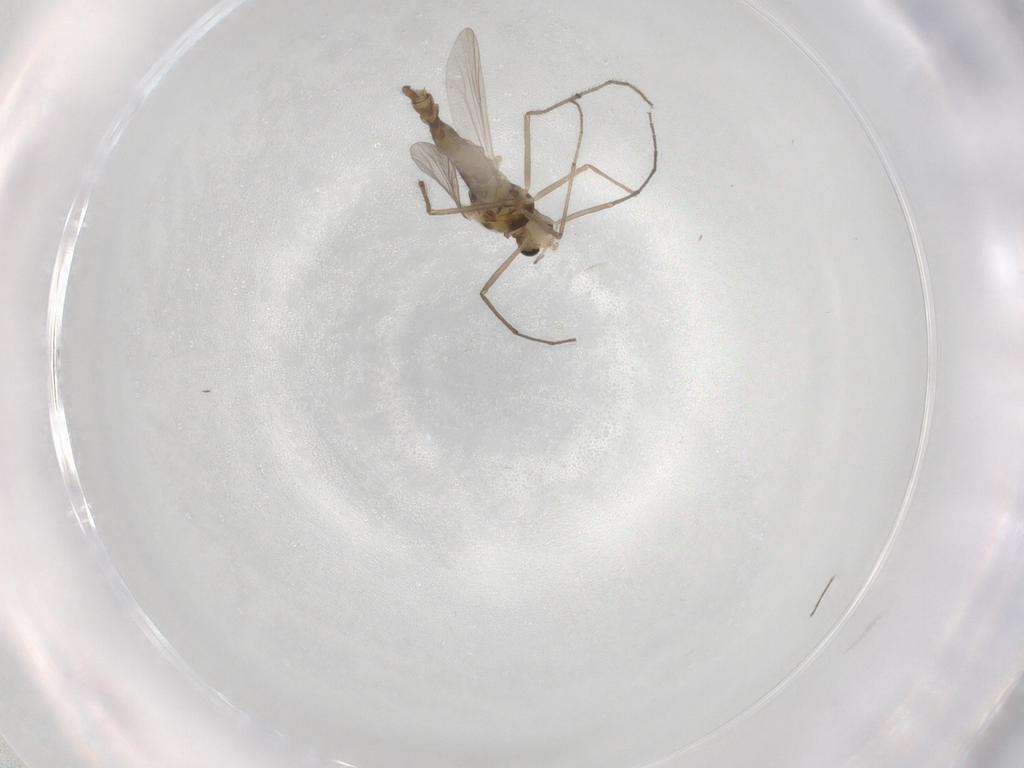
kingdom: Animalia
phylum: Arthropoda
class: Insecta
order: Diptera
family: Chironomidae
